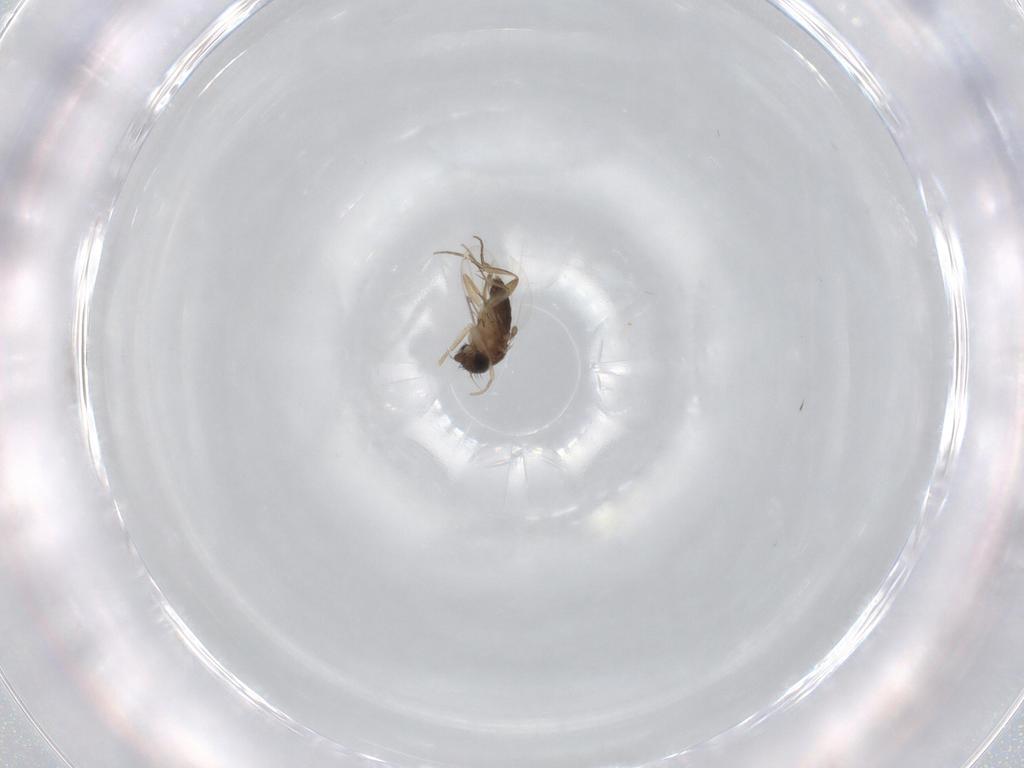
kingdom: Animalia
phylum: Arthropoda
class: Insecta
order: Diptera
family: Phoridae
